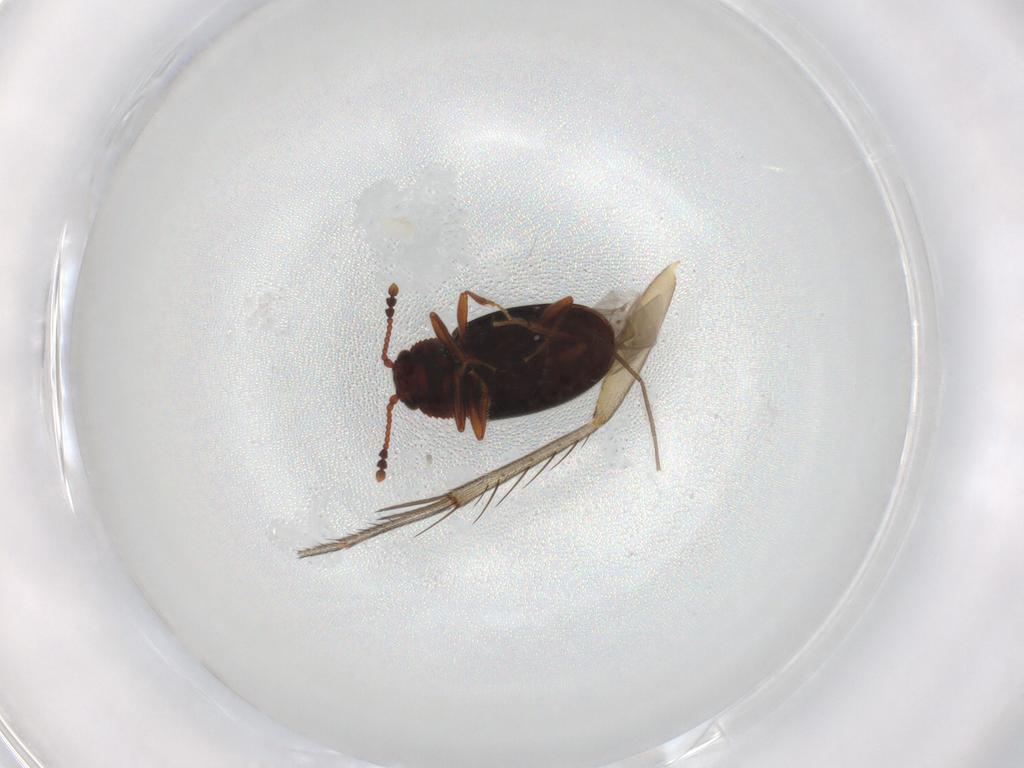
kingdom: Animalia
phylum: Arthropoda
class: Insecta
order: Coleoptera
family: Cryptophagidae
